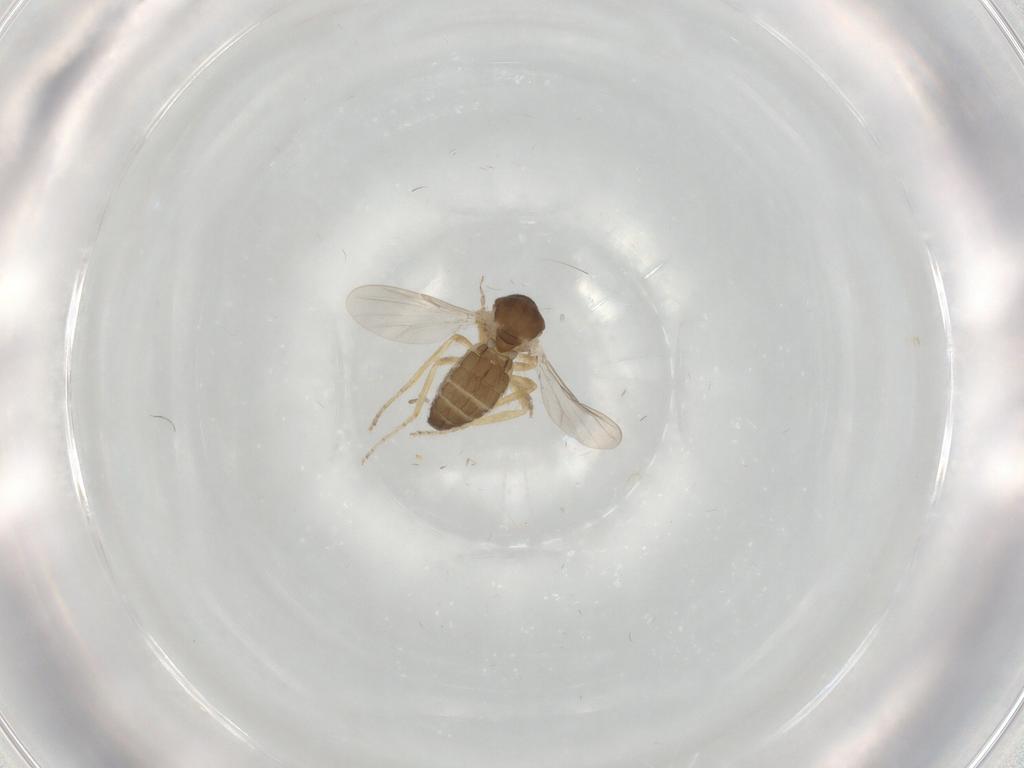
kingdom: Animalia
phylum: Arthropoda
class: Insecta
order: Diptera
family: Ceratopogonidae
